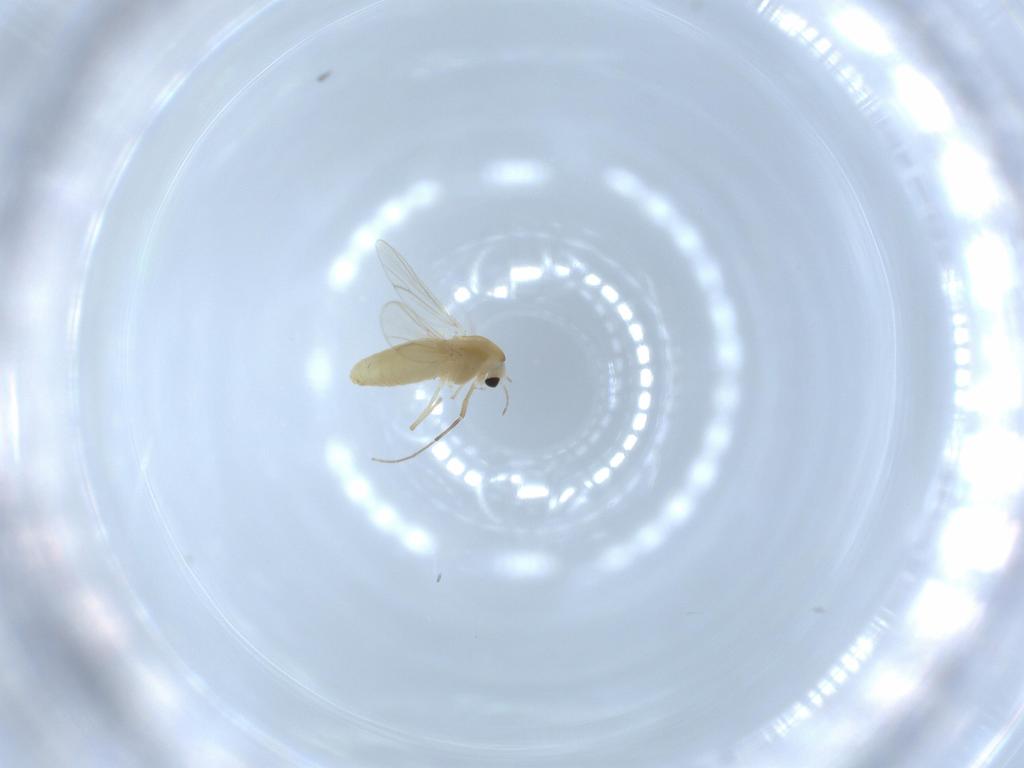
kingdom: Animalia
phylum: Arthropoda
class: Insecta
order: Diptera
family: Chironomidae
